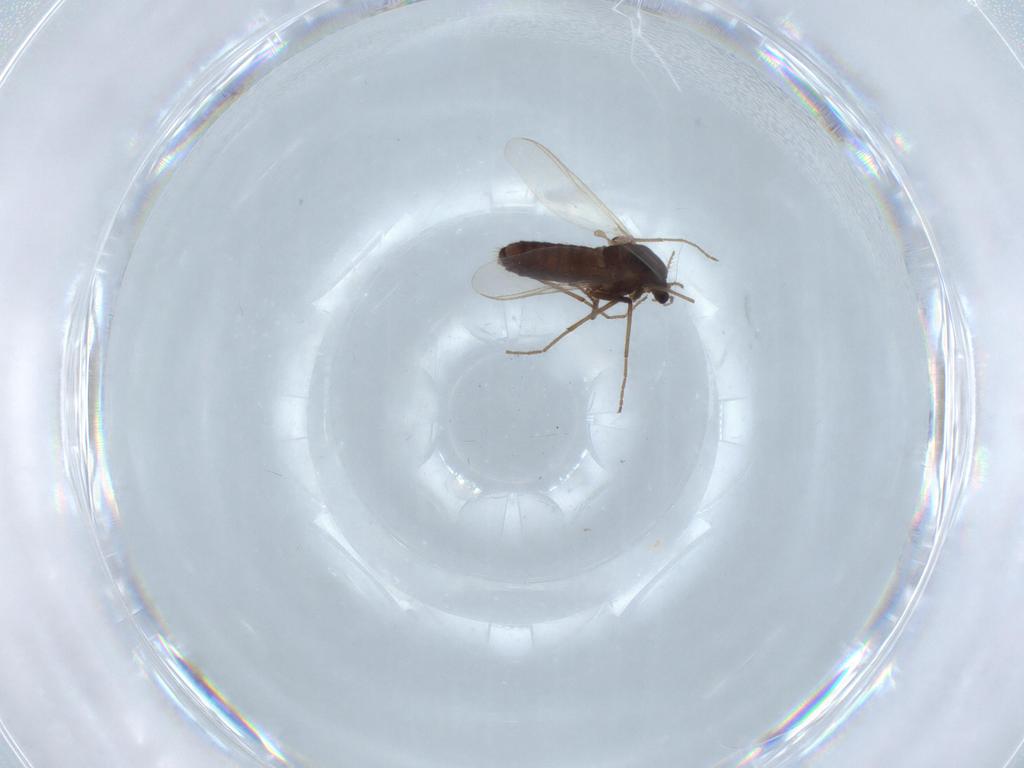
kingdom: Animalia
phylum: Arthropoda
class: Insecta
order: Diptera
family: Chironomidae
